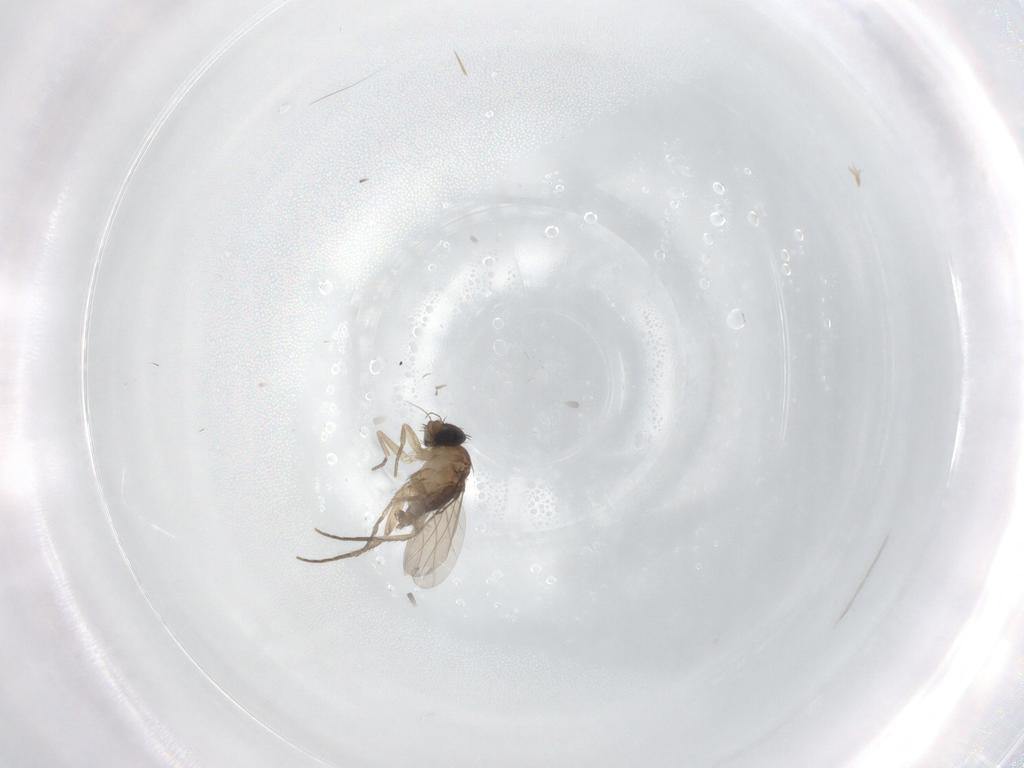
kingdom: Animalia
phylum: Arthropoda
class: Insecta
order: Diptera
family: Phoridae
